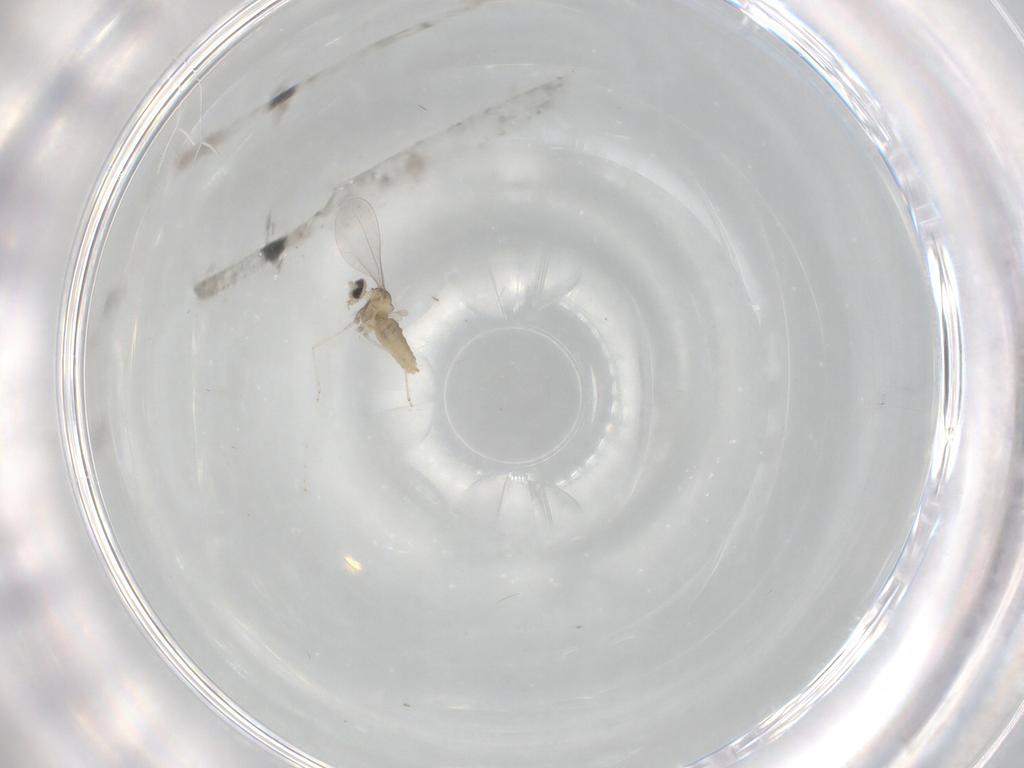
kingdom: Animalia
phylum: Arthropoda
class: Insecta
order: Diptera
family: Cecidomyiidae
